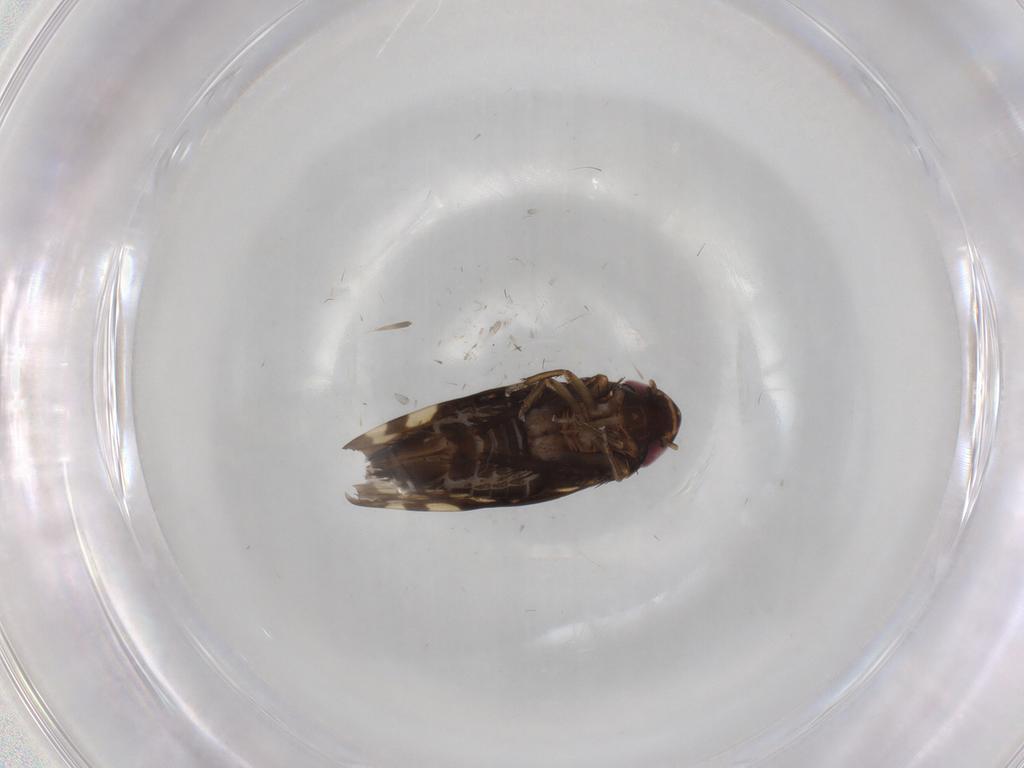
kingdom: Animalia
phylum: Arthropoda
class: Insecta
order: Hemiptera
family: Cicadellidae
